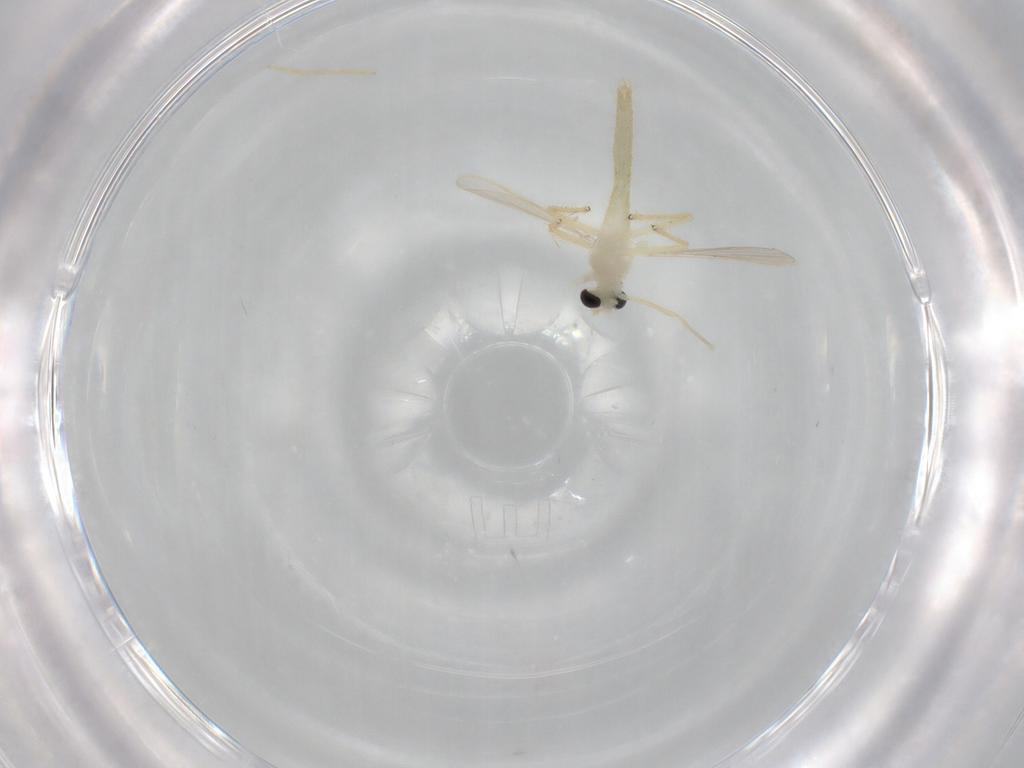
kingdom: Animalia
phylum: Arthropoda
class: Insecta
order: Diptera
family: Chironomidae
